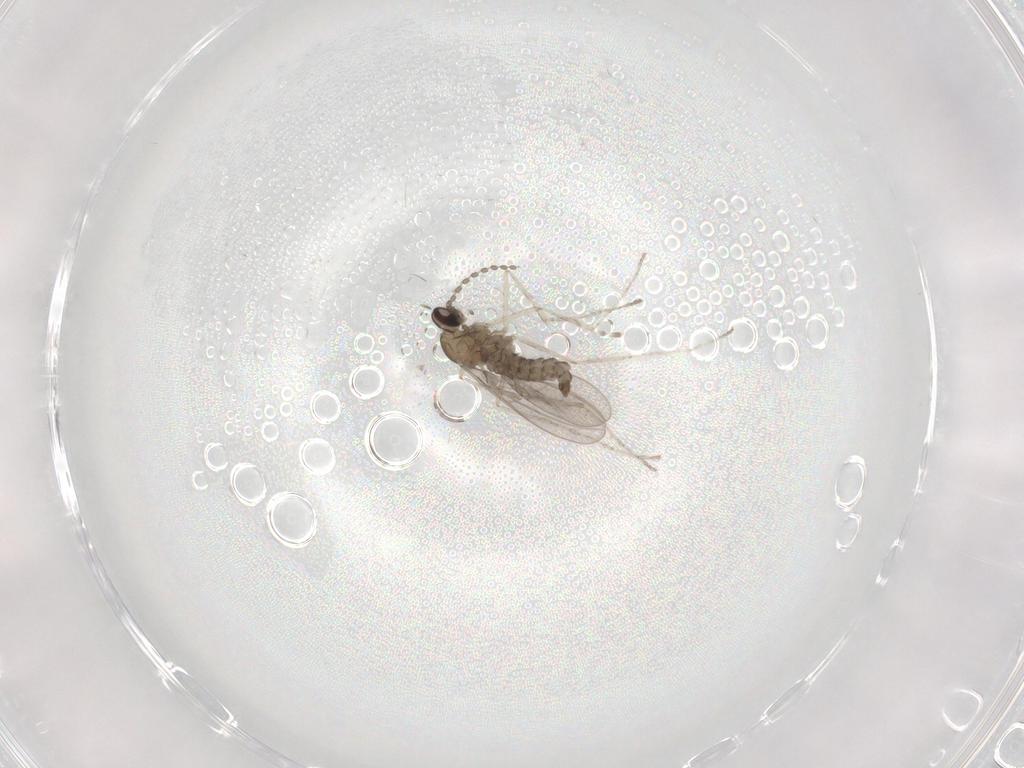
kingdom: Animalia
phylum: Arthropoda
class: Insecta
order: Diptera
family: Cecidomyiidae
